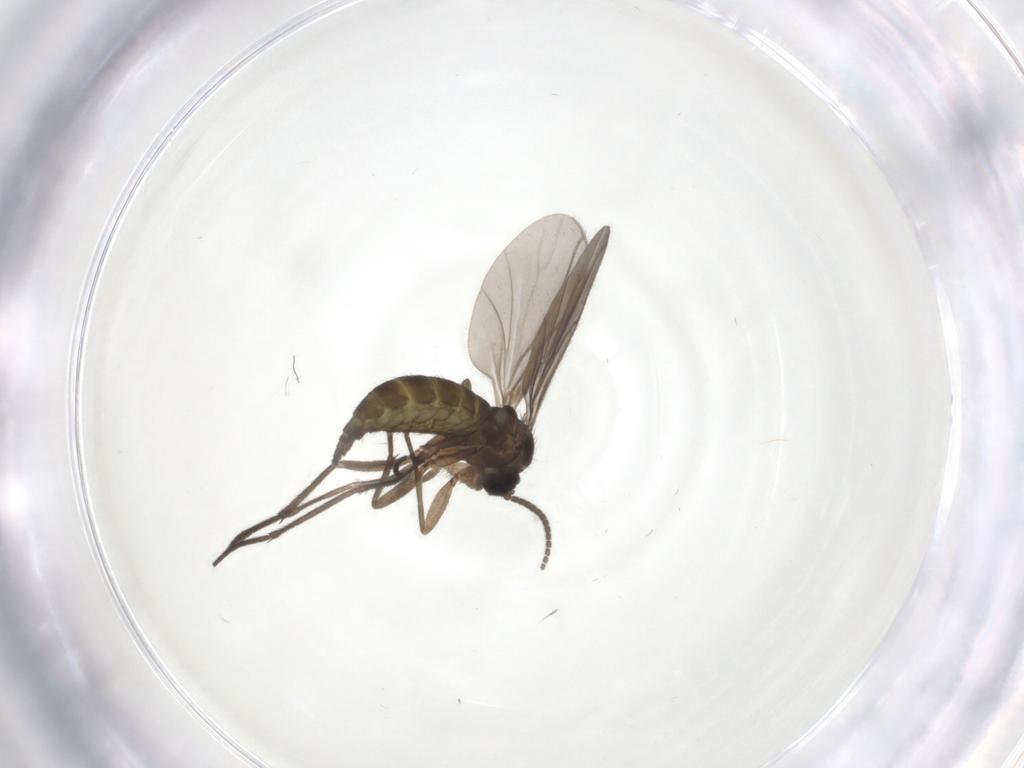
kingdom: Animalia
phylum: Arthropoda
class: Insecta
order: Diptera
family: Sciaridae
